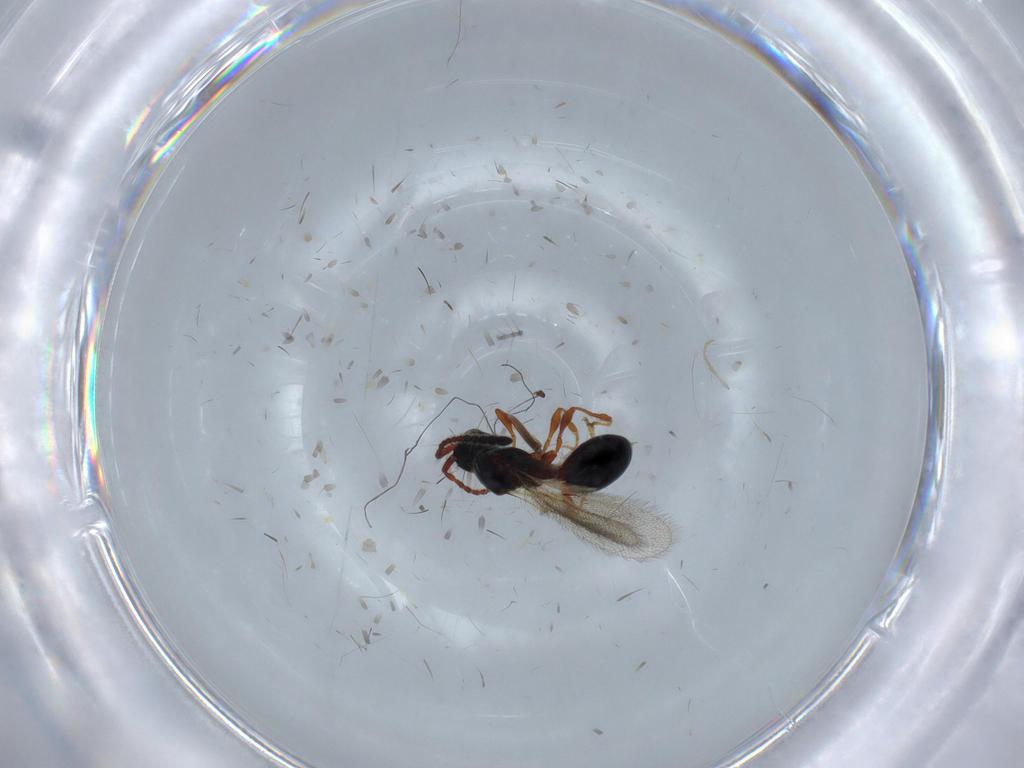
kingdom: Animalia
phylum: Arthropoda
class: Insecta
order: Hymenoptera
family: Diapriidae
